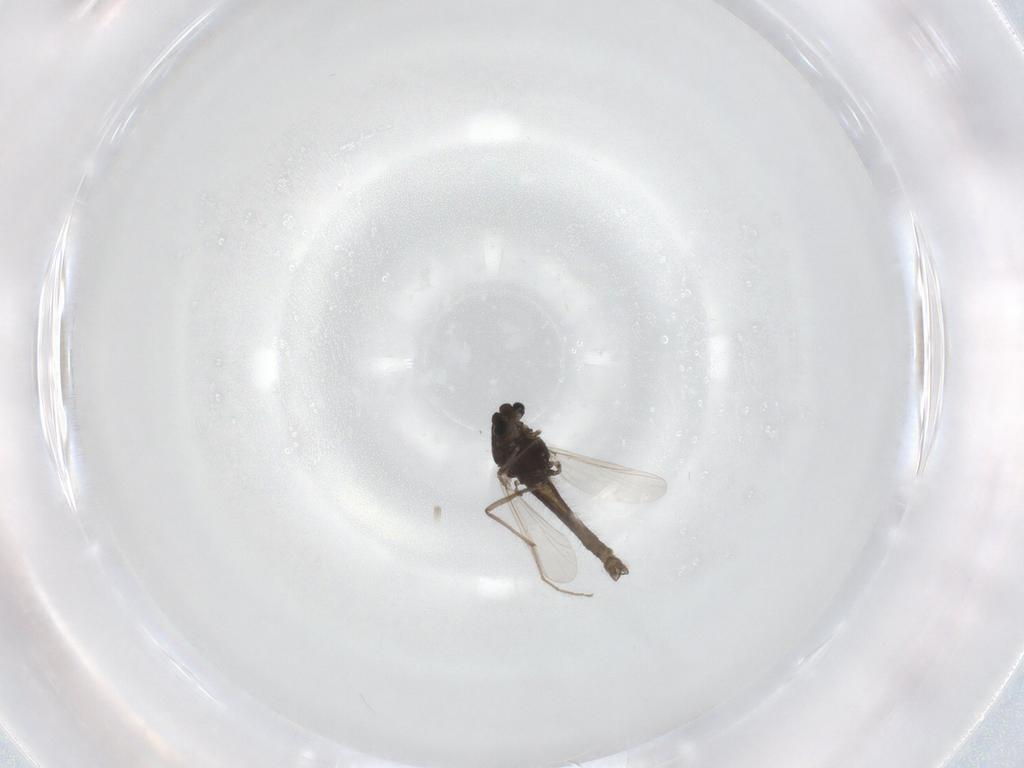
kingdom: Animalia
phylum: Arthropoda
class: Insecta
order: Diptera
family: Chironomidae
